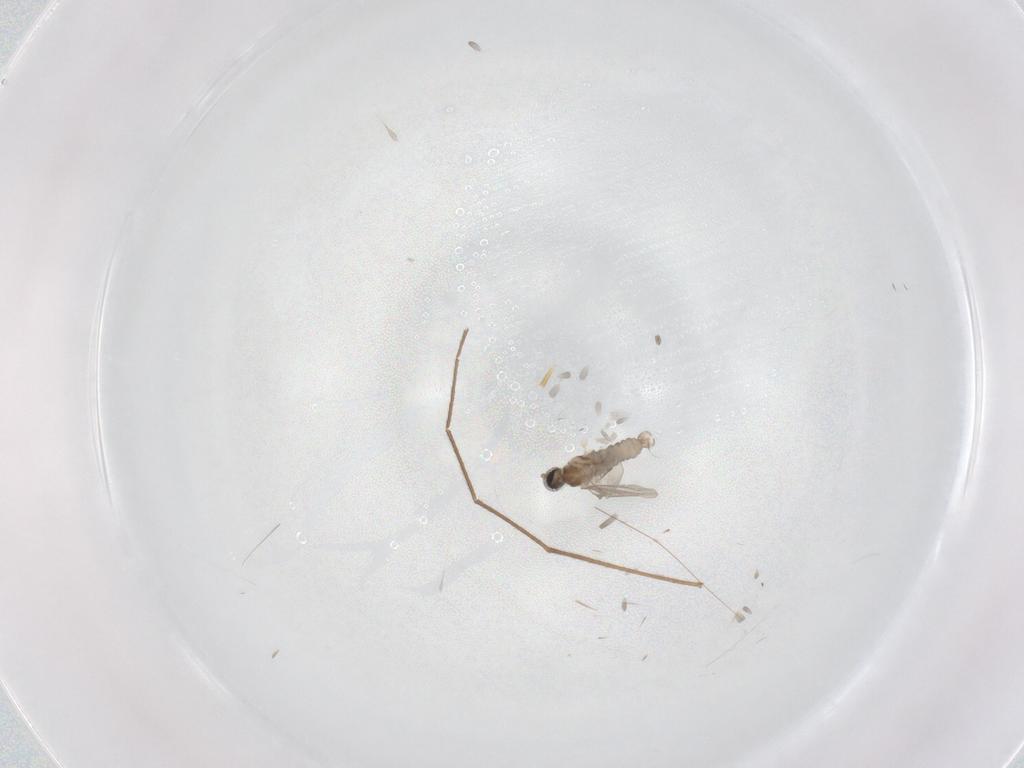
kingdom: Animalia
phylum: Arthropoda
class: Insecta
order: Diptera
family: Cecidomyiidae
